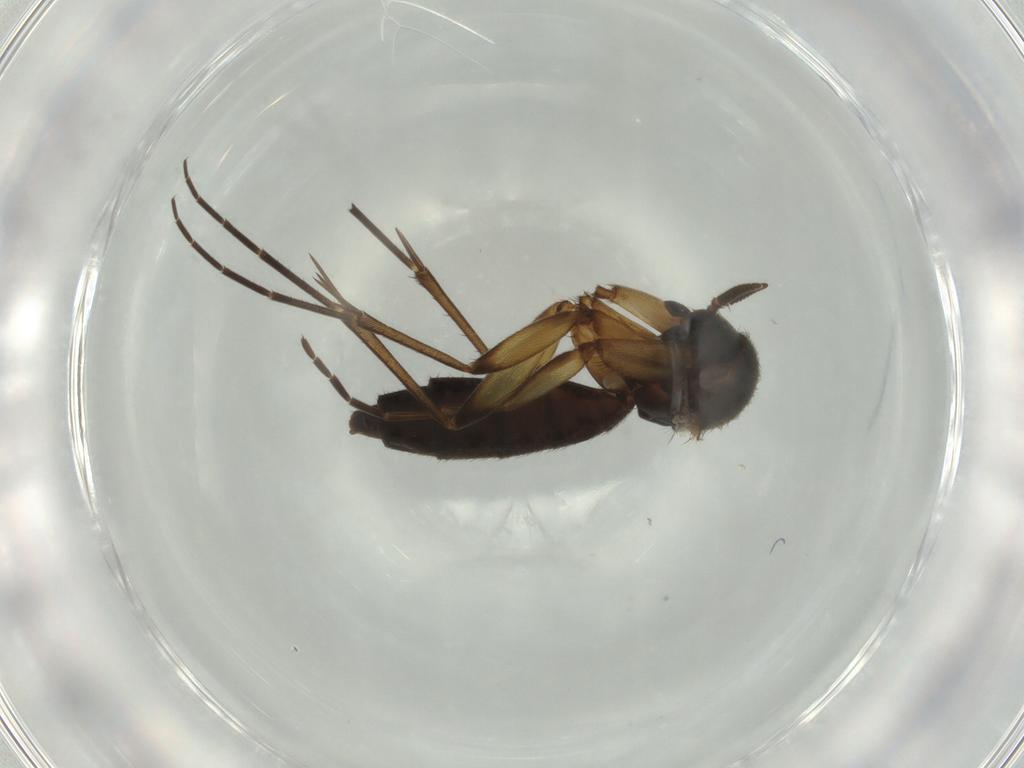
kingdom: Animalia
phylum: Arthropoda
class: Insecta
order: Diptera
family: Mycetophilidae
